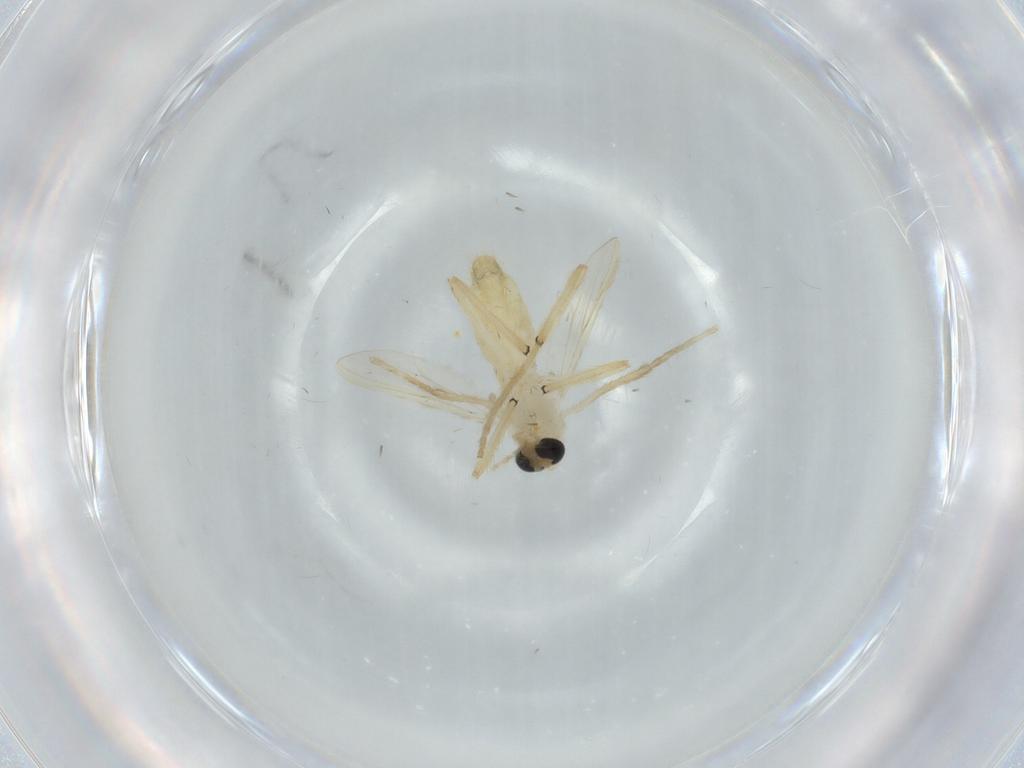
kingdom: Animalia
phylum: Arthropoda
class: Insecta
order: Diptera
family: Chironomidae
